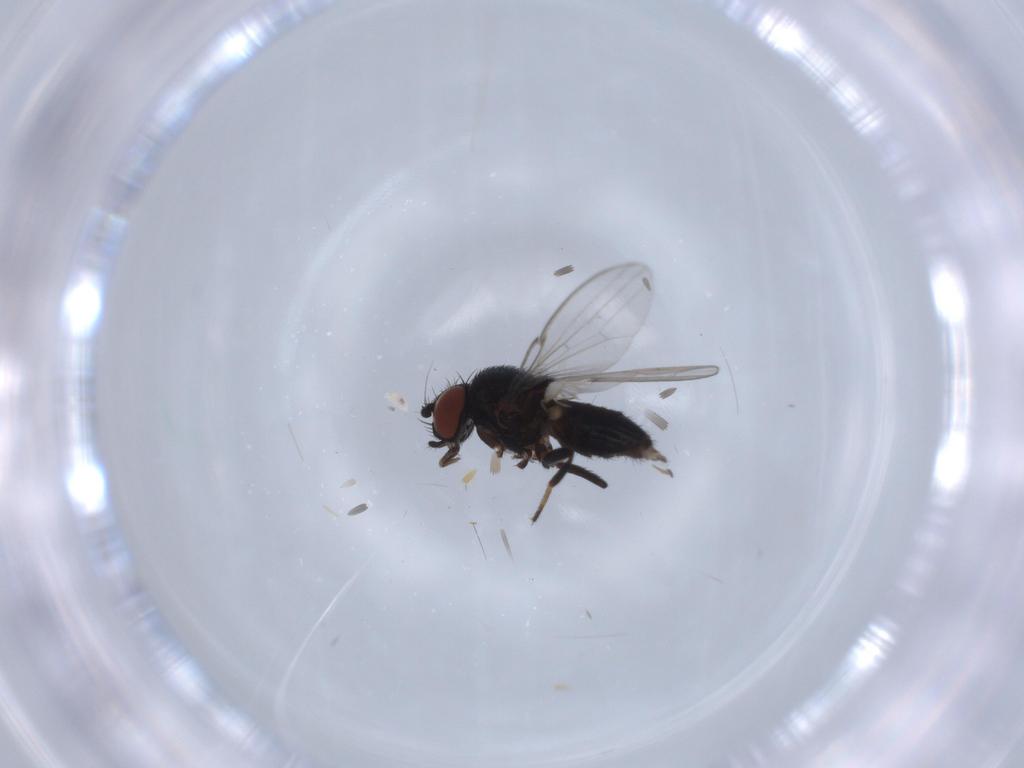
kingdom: Animalia
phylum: Arthropoda
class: Insecta
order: Diptera
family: Milichiidae
